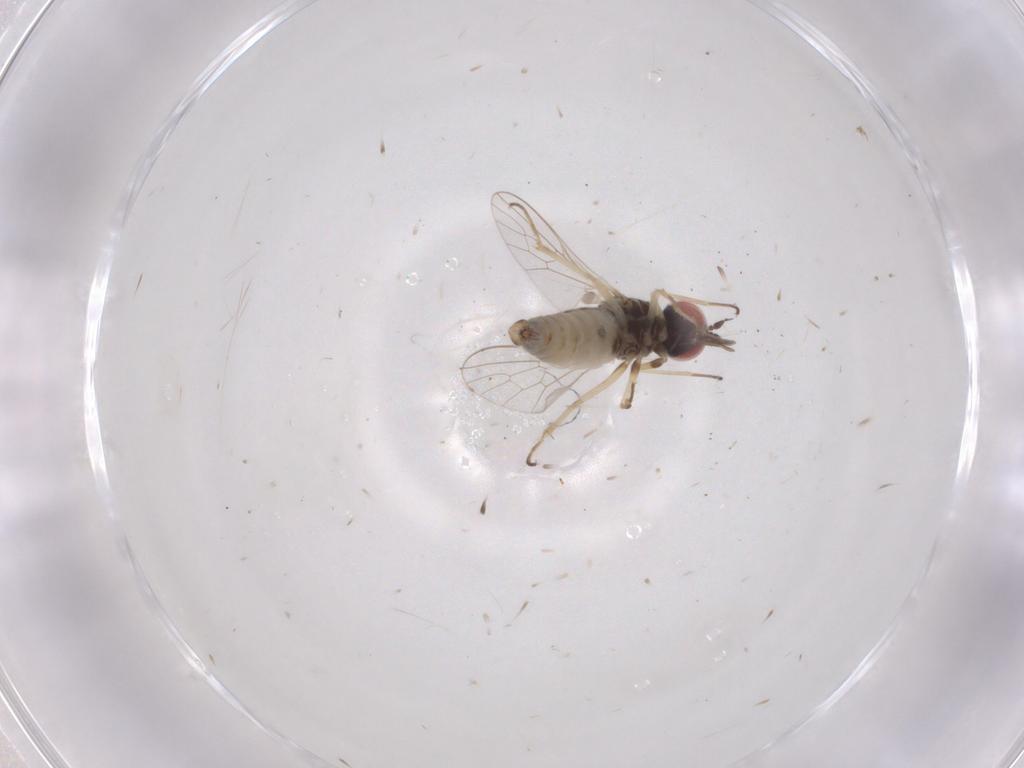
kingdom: Animalia
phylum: Arthropoda
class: Insecta
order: Diptera
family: Mythicomyiidae
